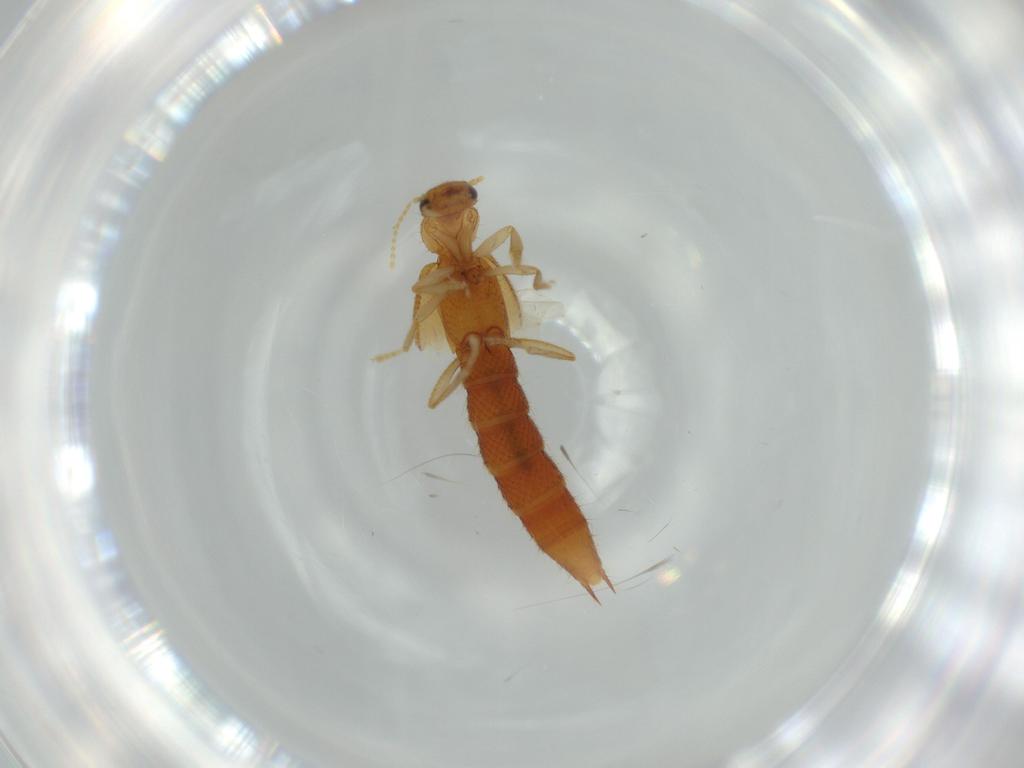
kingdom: Animalia
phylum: Arthropoda
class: Insecta
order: Coleoptera
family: Staphylinidae
